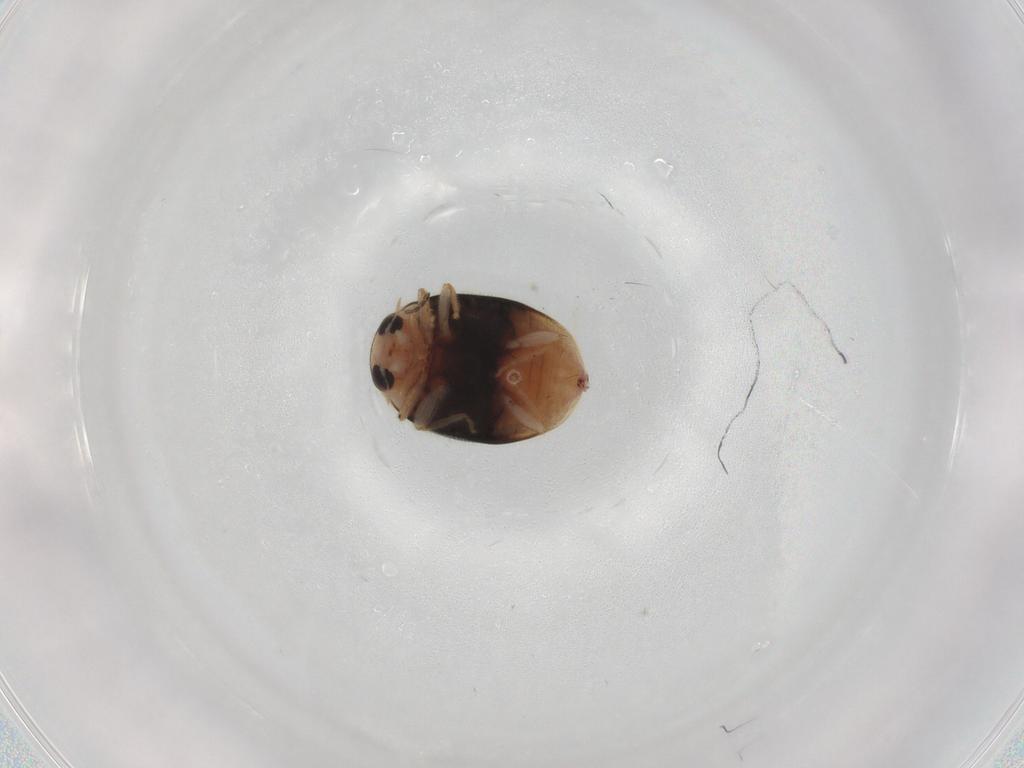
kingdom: Animalia
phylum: Arthropoda
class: Insecta
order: Coleoptera
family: Coccinellidae
